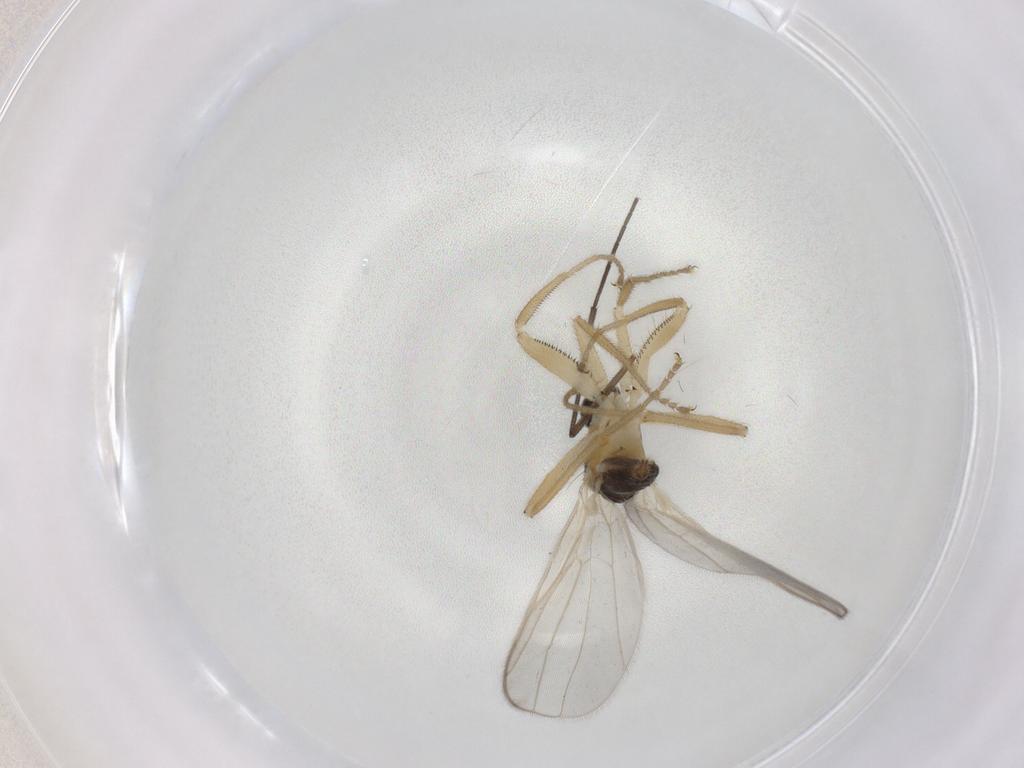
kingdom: Animalia
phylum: Arthropoda
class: Insecta
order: Diptera
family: Hybotidae
